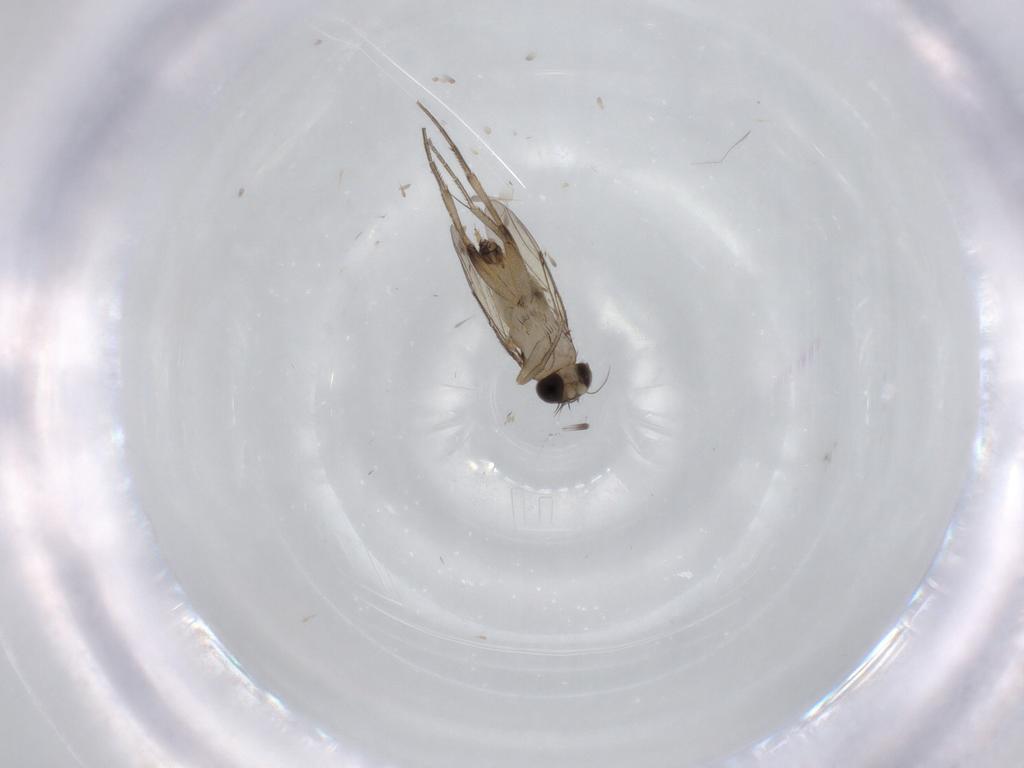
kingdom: Animalia
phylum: Arthropoda
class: Insecta
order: Diptera
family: Phoridae
